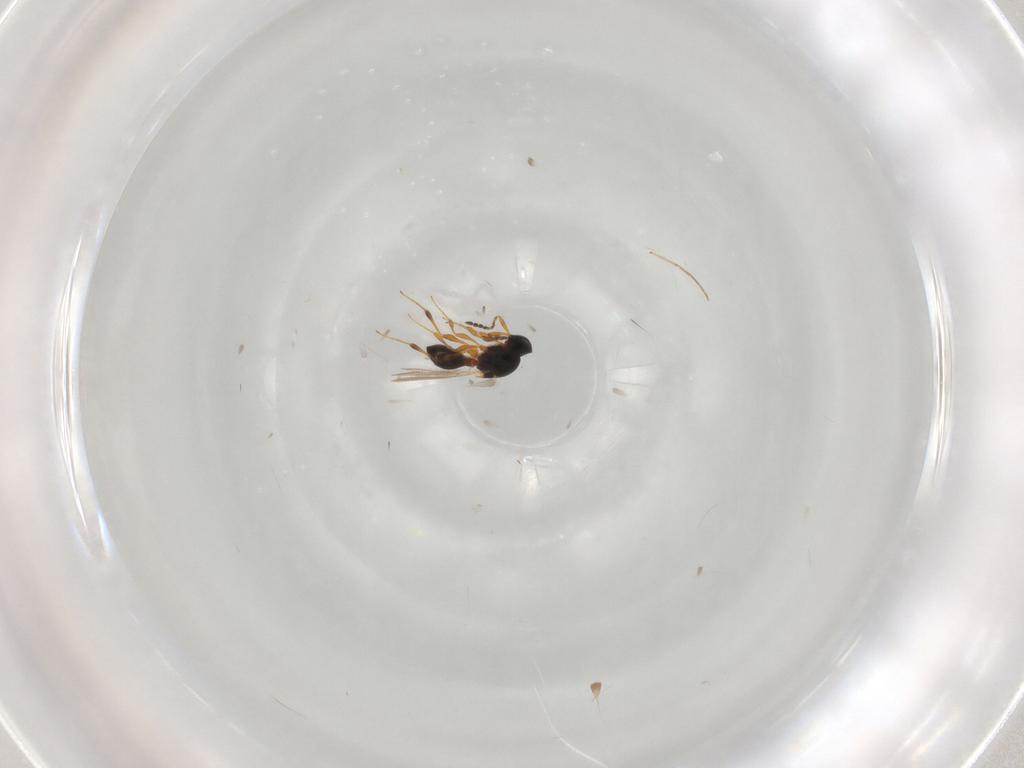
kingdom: Animalia
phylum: Arthropoda
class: Insecta
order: Hymenoptera
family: Platygastridae
